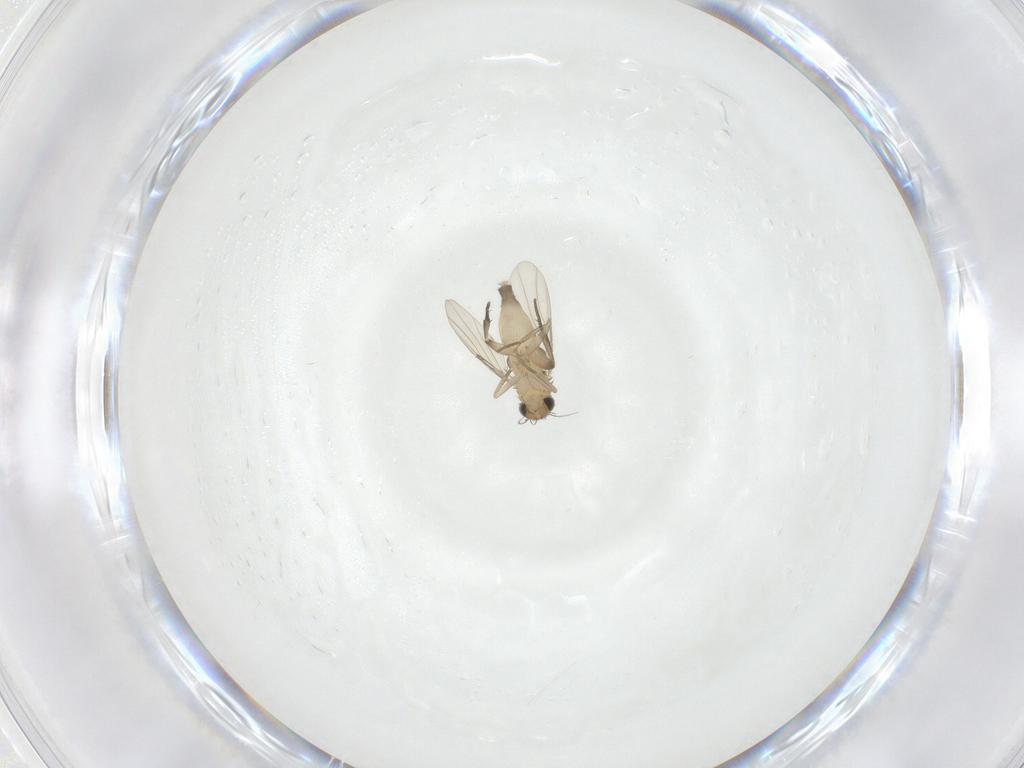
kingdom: Animalia
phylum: Arthropoda
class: Insecta
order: Diptera
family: Phoridae
